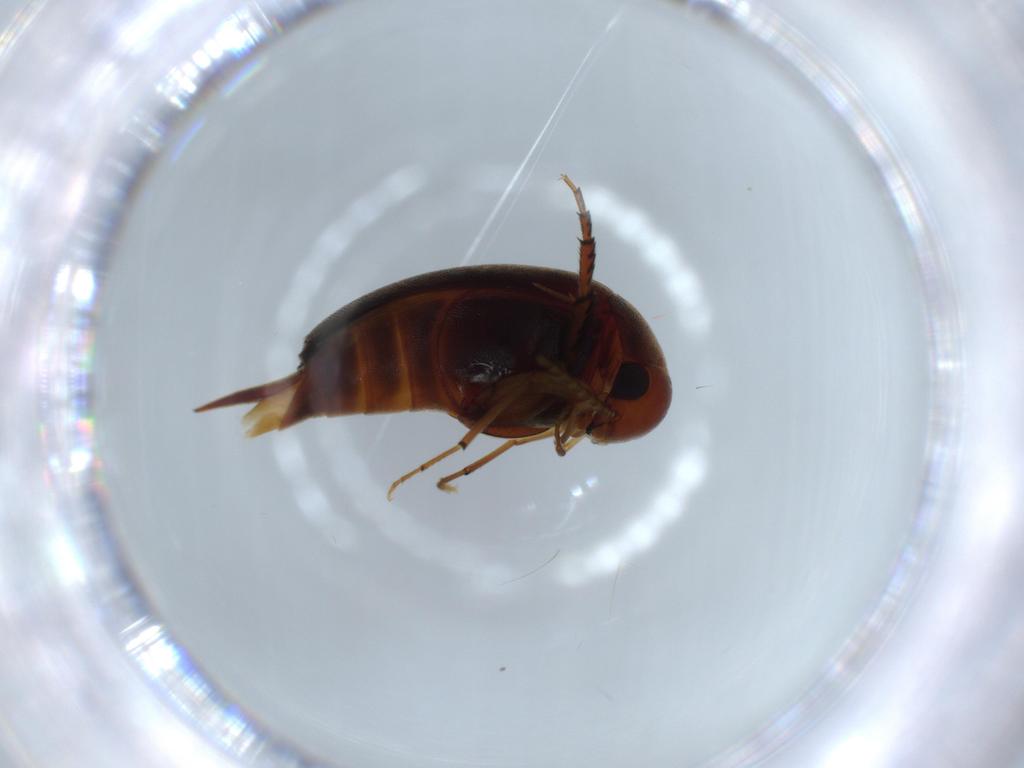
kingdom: Animalia
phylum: Arthropoda
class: Insecta
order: Coleoptera
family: Mordellidae
